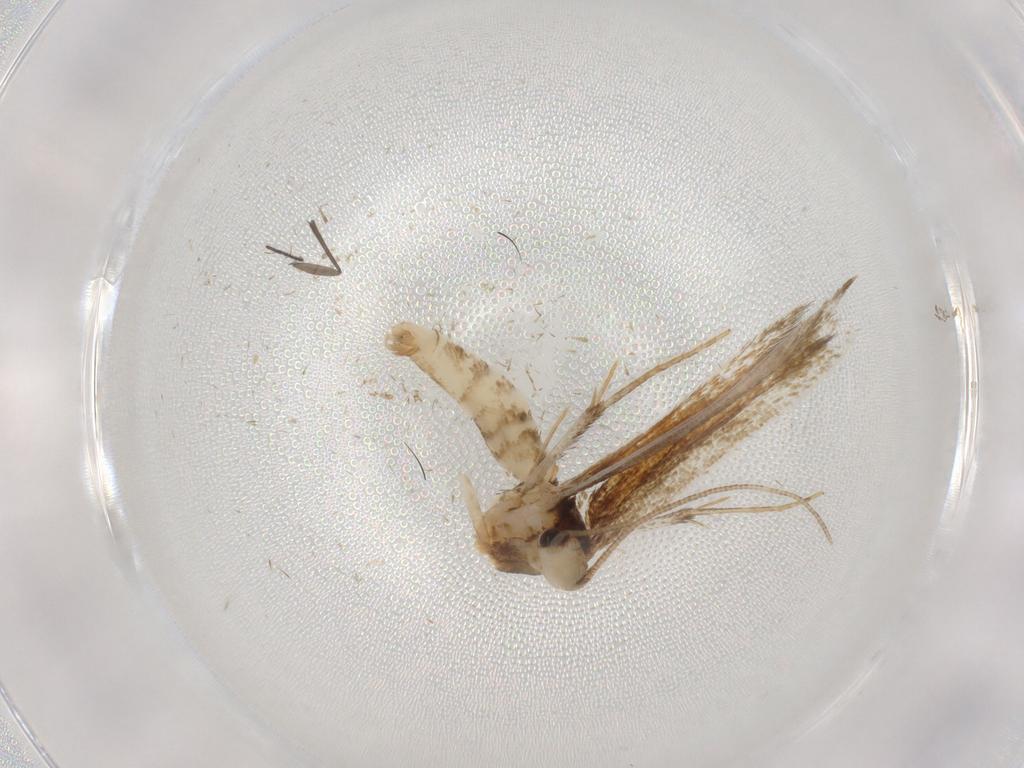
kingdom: Animalia
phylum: Arthropoda
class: Insecta
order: Lepidoptera
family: Tineidae
